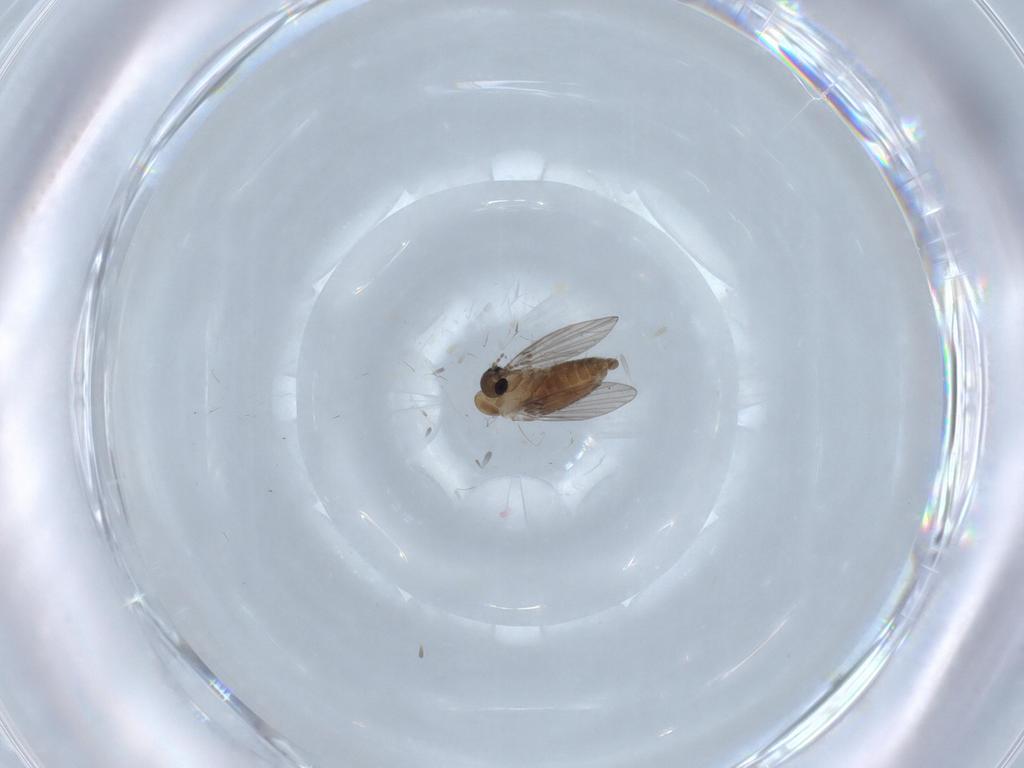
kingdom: Animalia
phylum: Arthropoda
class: Insecta
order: Diptera
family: Psychodidae
